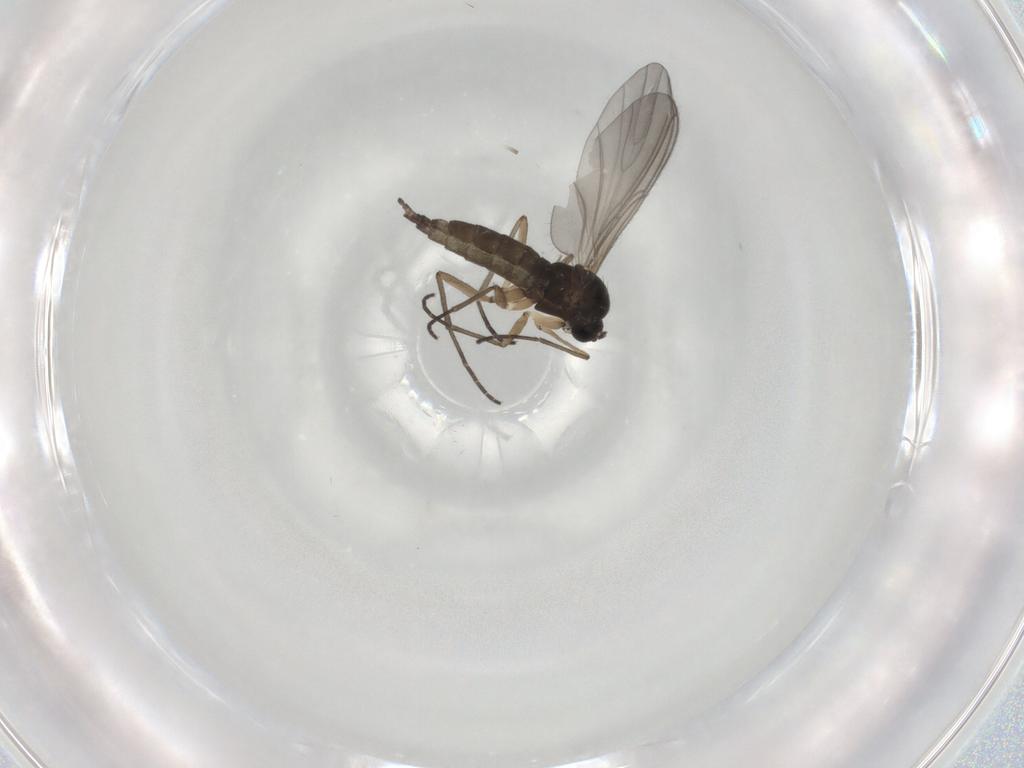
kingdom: Animalia
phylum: Arthropoda
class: Insecta
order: Diptera
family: Sciaridae
